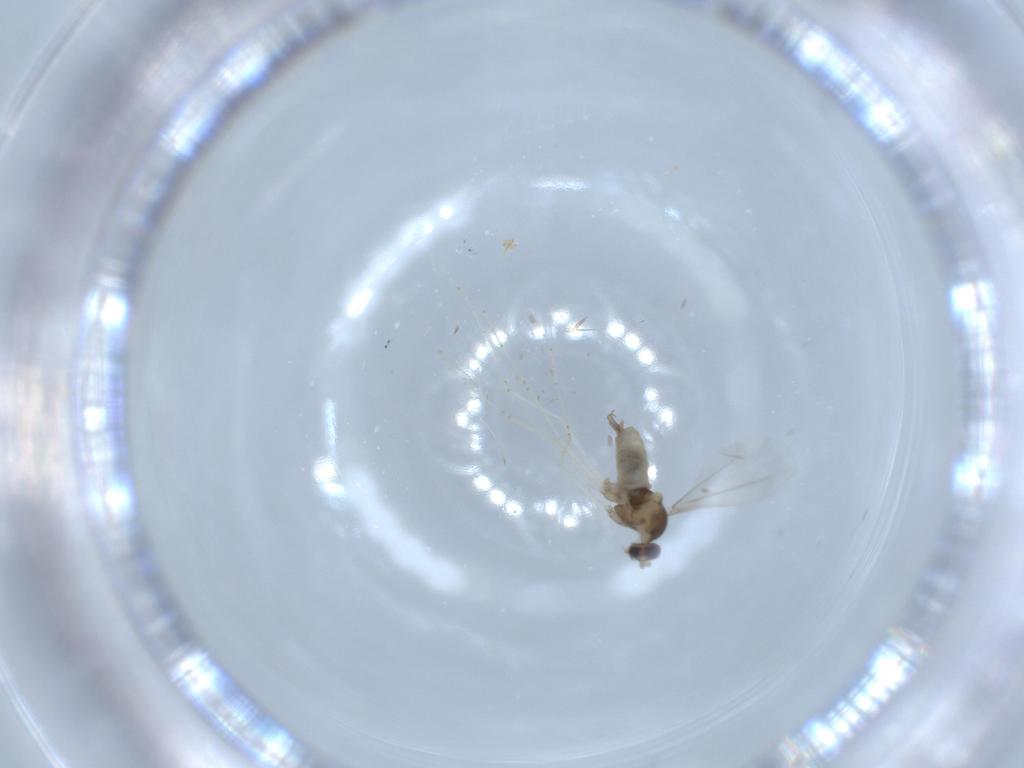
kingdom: Animalia
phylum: Arthropoda
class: Insecta
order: Diptera
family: Cecidomyiidae
